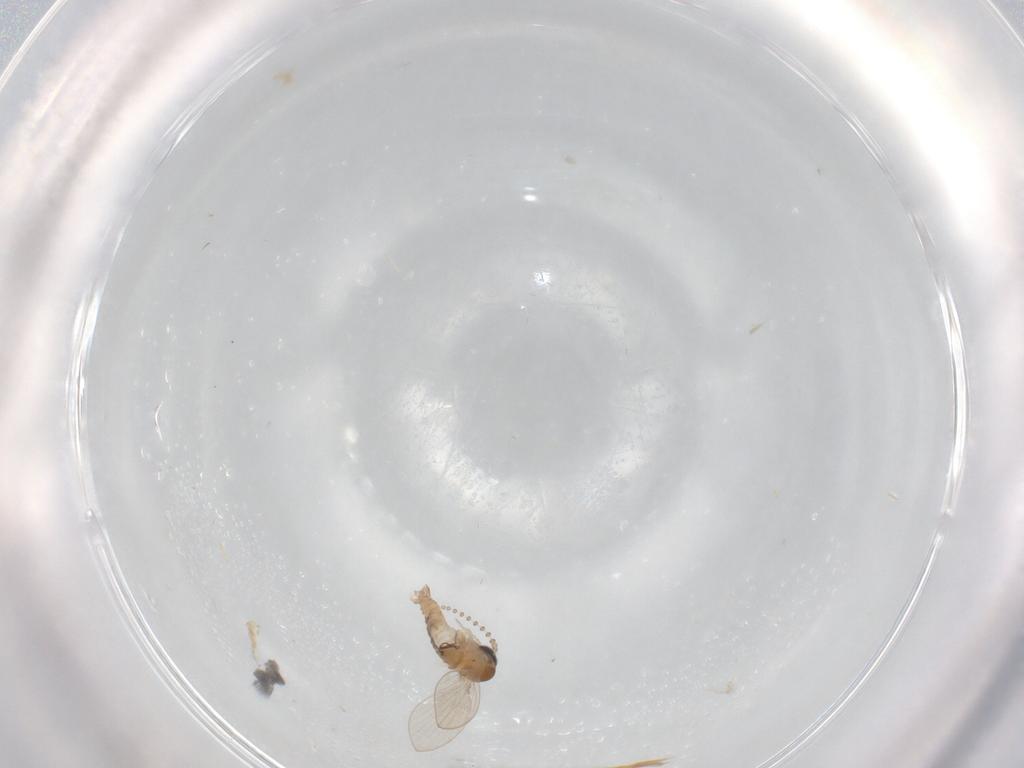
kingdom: Animalia
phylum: Arthropoda
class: Insecta
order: Diptera
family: Psychodidae
